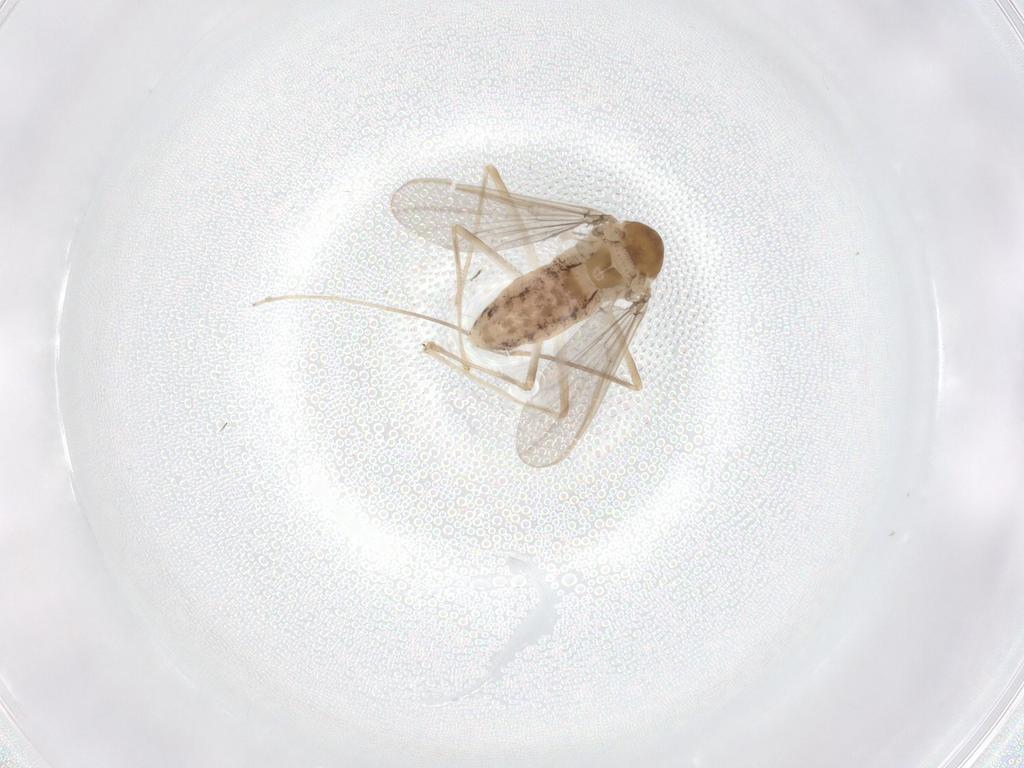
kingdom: Animalia
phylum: Arthropoda
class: Insecta
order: Diptera
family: Chironomidae
